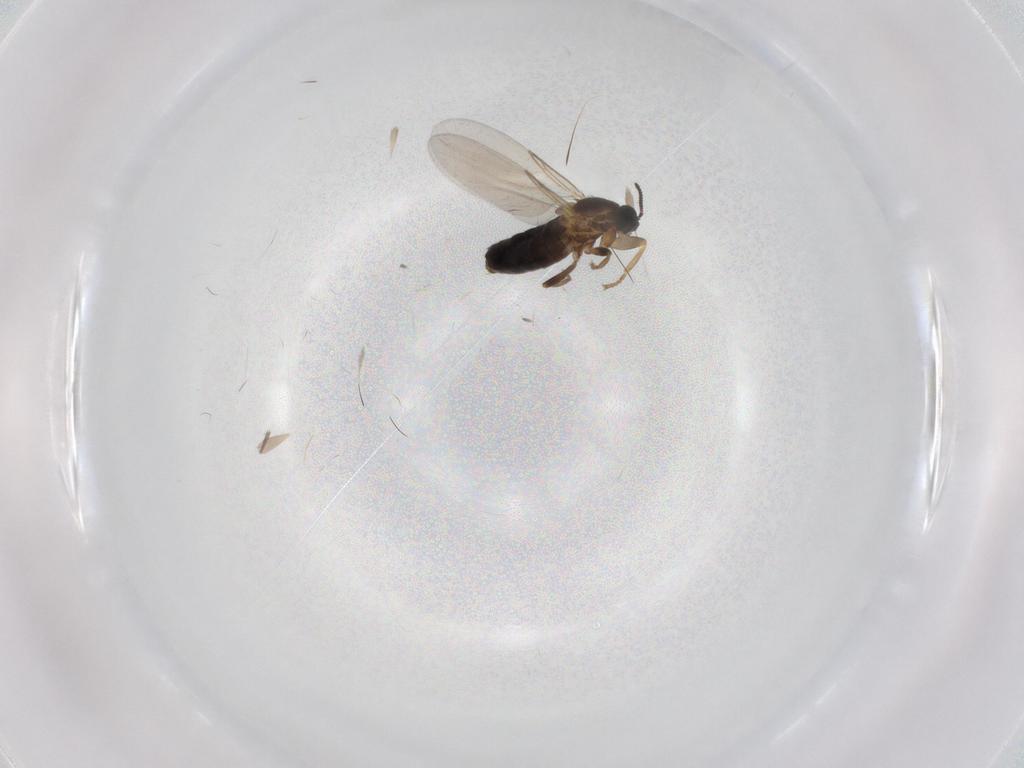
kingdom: Animalia
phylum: Arthropoda
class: Insecta
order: Diptera
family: Scatopsidae
